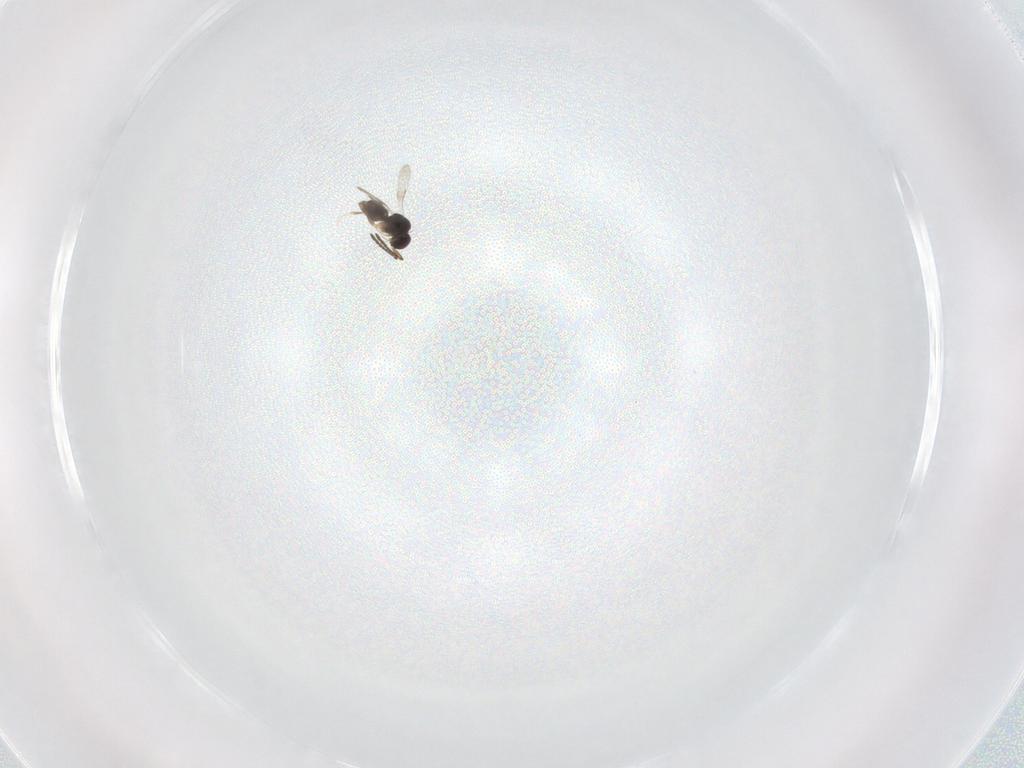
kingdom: Animalia
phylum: Arthropoda
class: Insecta
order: Hymenoptera
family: Scelionidae
